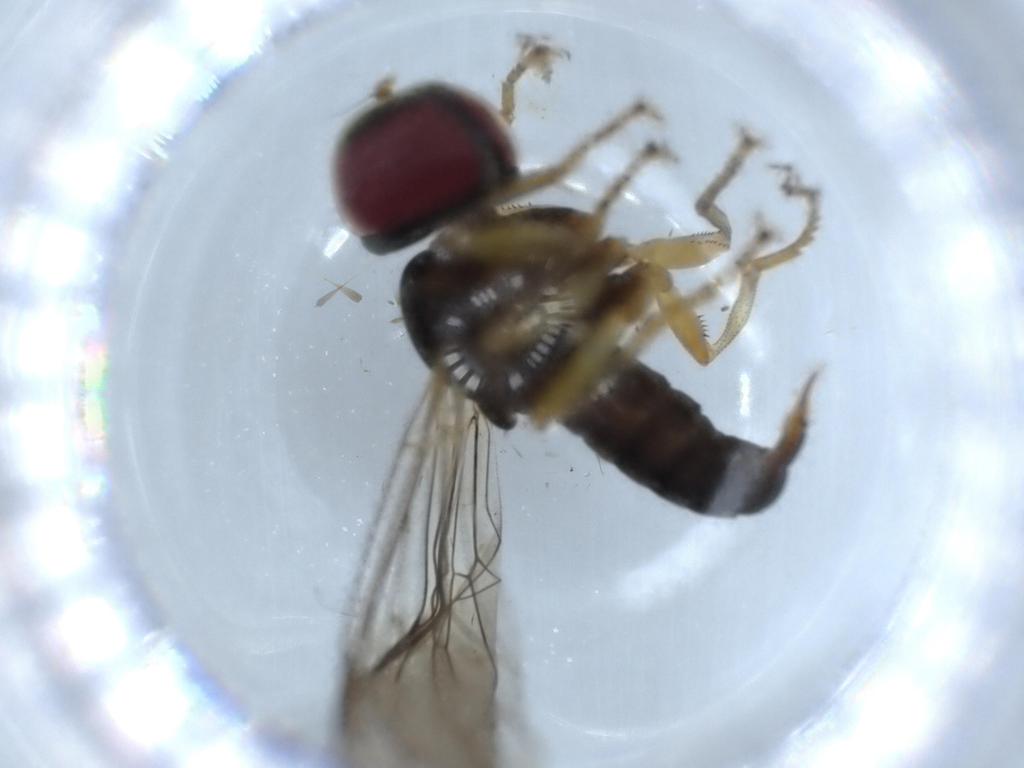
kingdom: Animalia
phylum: Arthropoda
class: Insecta
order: Diptera
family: Pipunculidae
